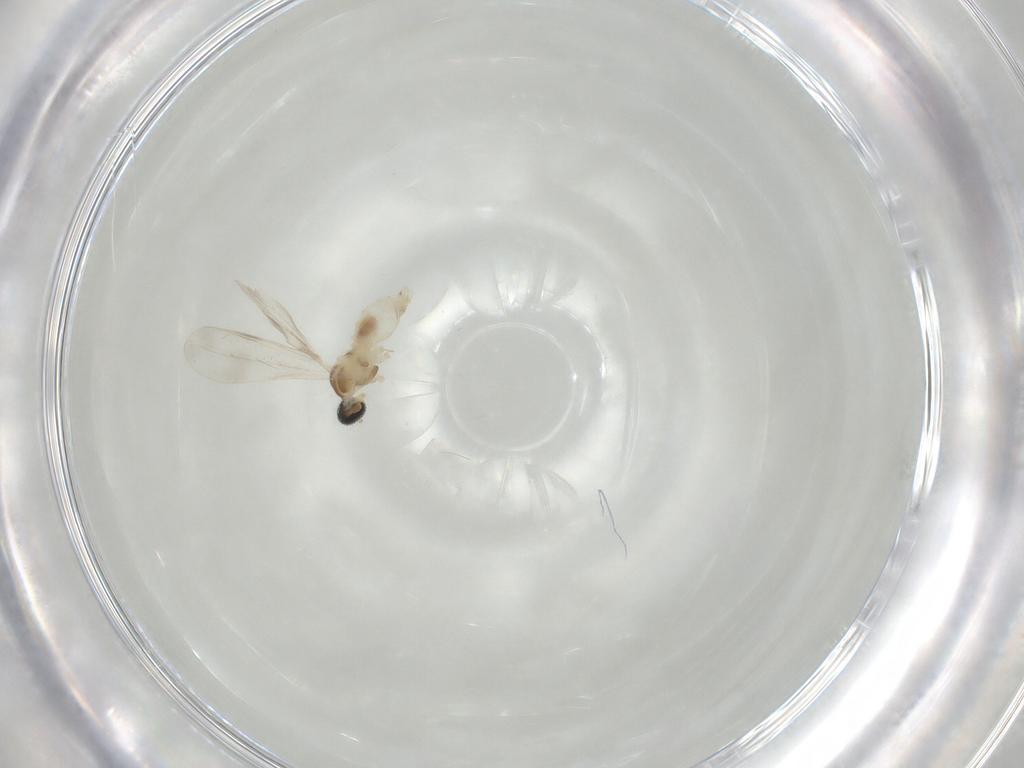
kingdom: Animalia
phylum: Arthropoda
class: Insecta
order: Diptera
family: Cecidomyiidae
